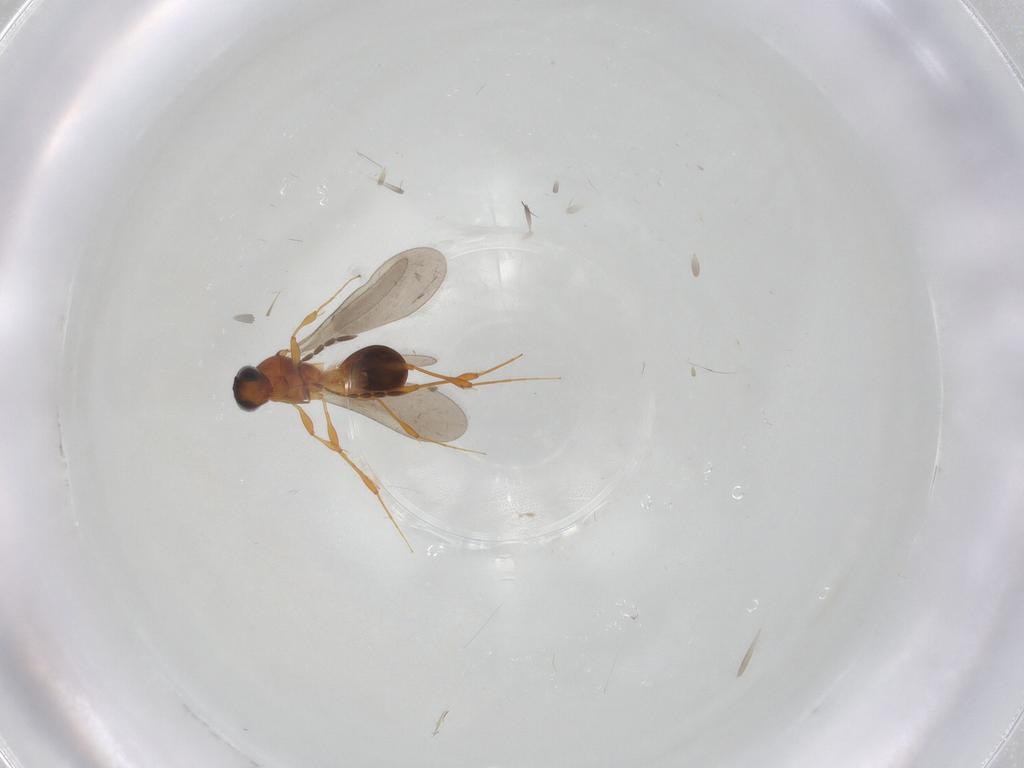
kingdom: Animalia
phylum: Arthropoda
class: Insecta
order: Hymenoptera
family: Platygastridae
